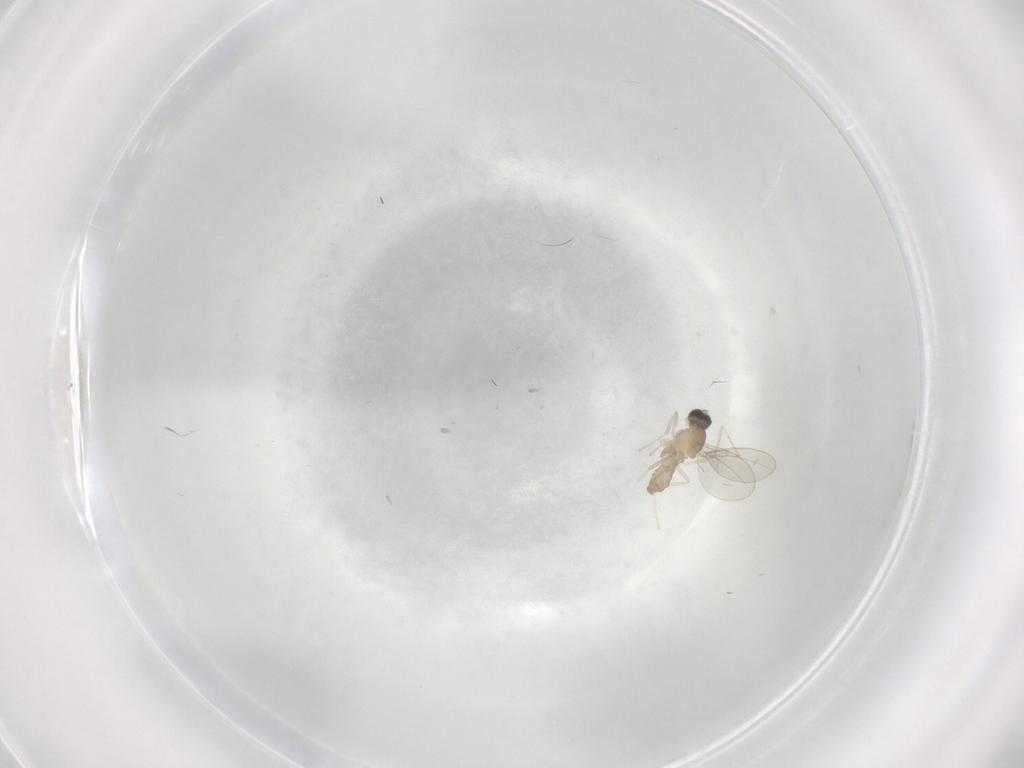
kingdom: Animalia
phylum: Arthropoda
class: Insecta
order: Diptera
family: Cecidomyiidae
